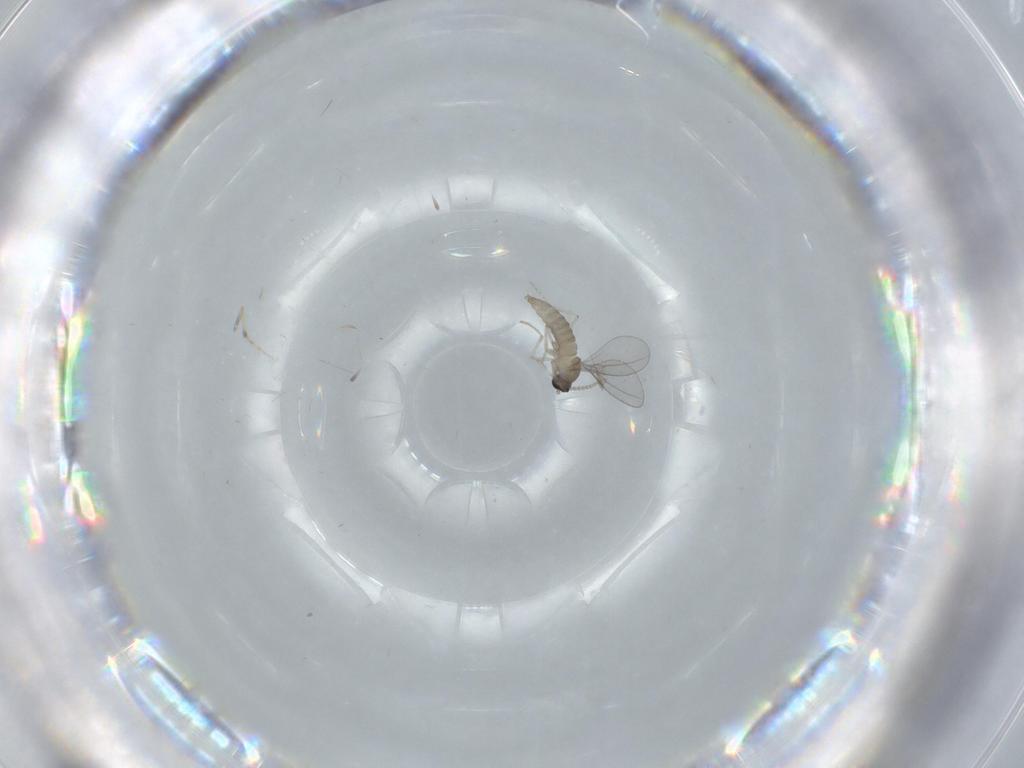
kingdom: Animalia
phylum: Arthropoda
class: Insecta
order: Diptera
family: Cecidomyiidae
